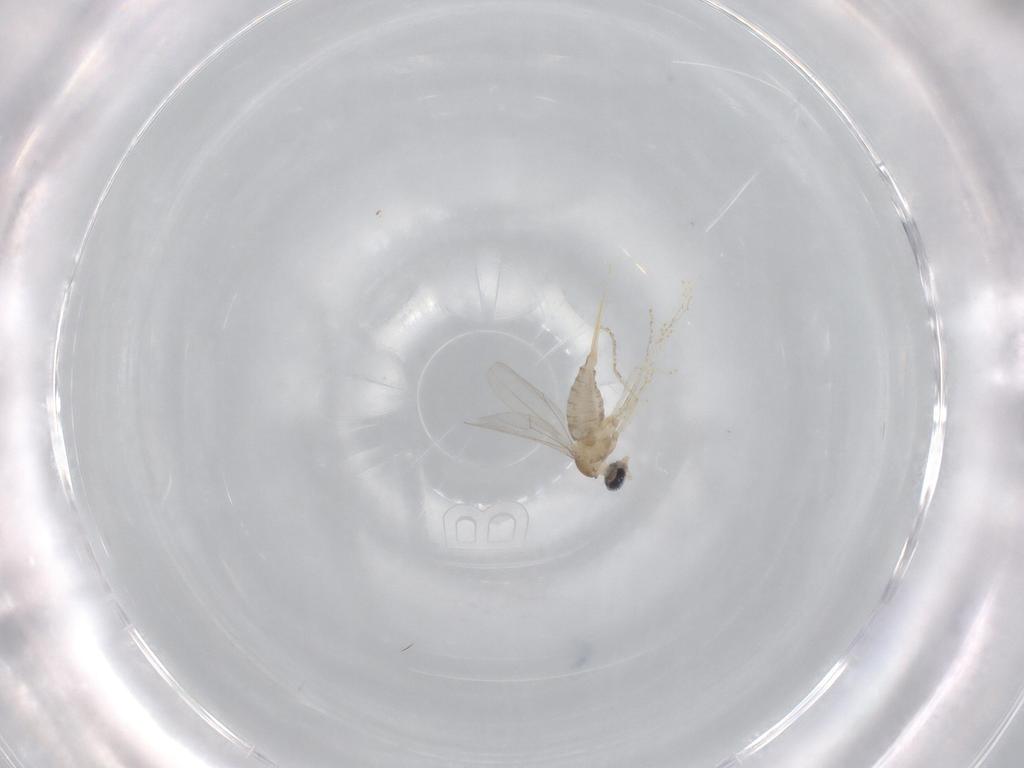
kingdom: Animalia
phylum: Arthropoda
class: Insecta
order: Diptera
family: Cecidomyiidae
